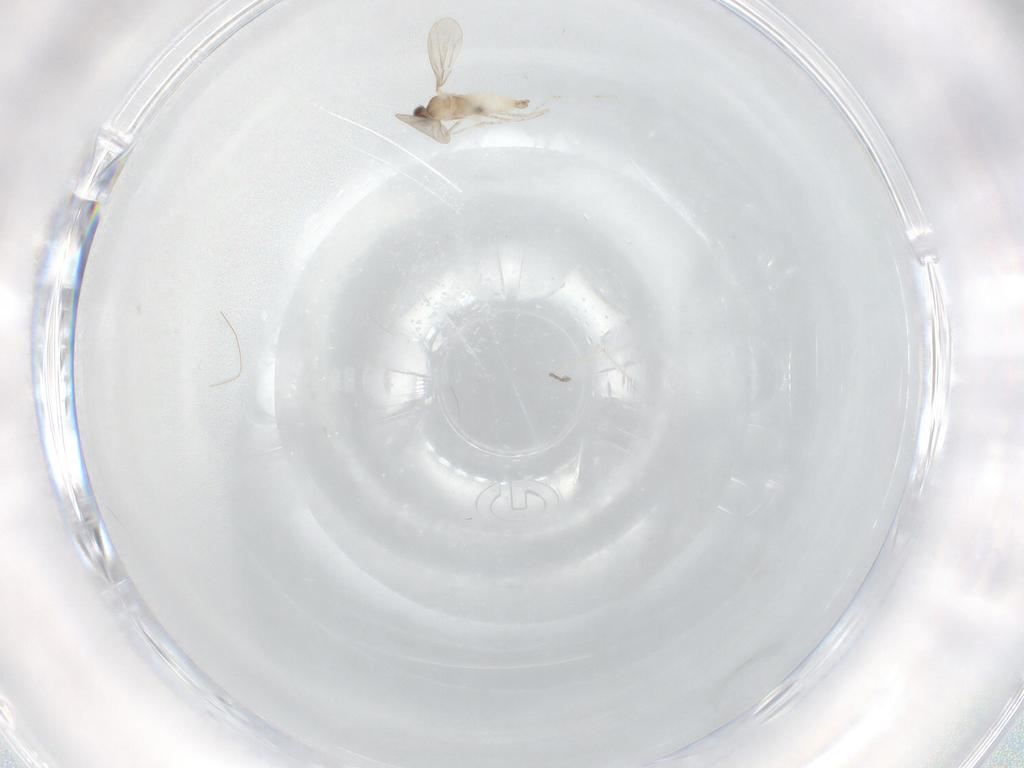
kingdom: Animalia
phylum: Arthropoda
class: Insecta
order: Diptera
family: Chironomidae
